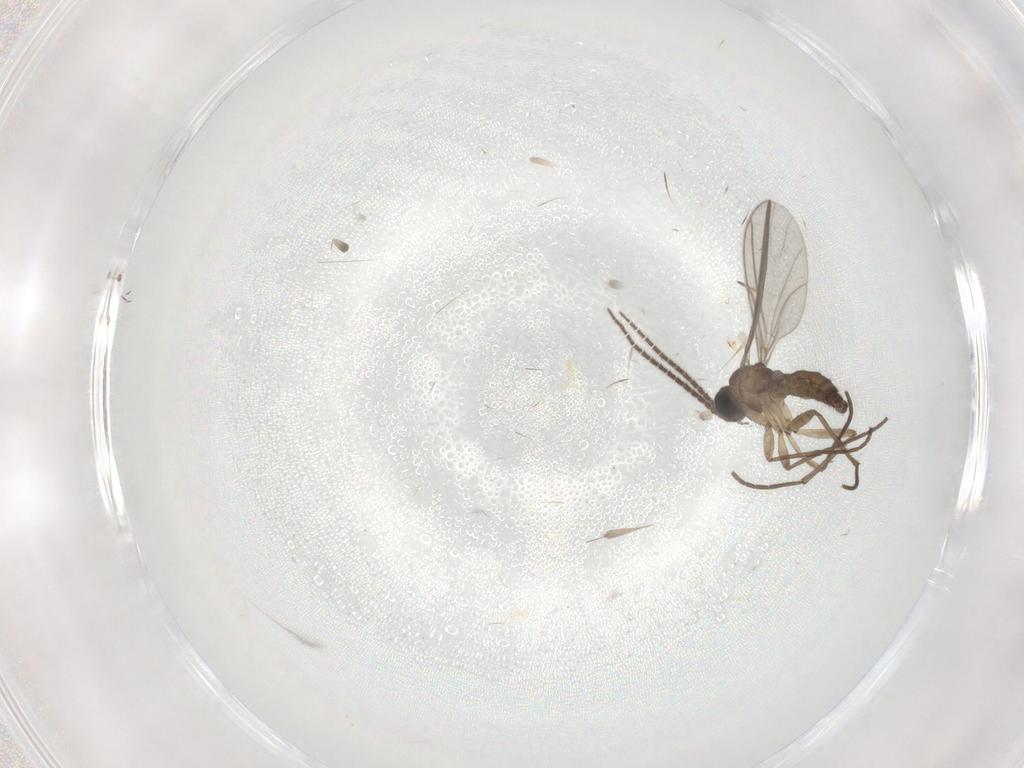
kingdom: Animalia
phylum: Arthropoda
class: Insecta
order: Diptera
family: Sciaridae
